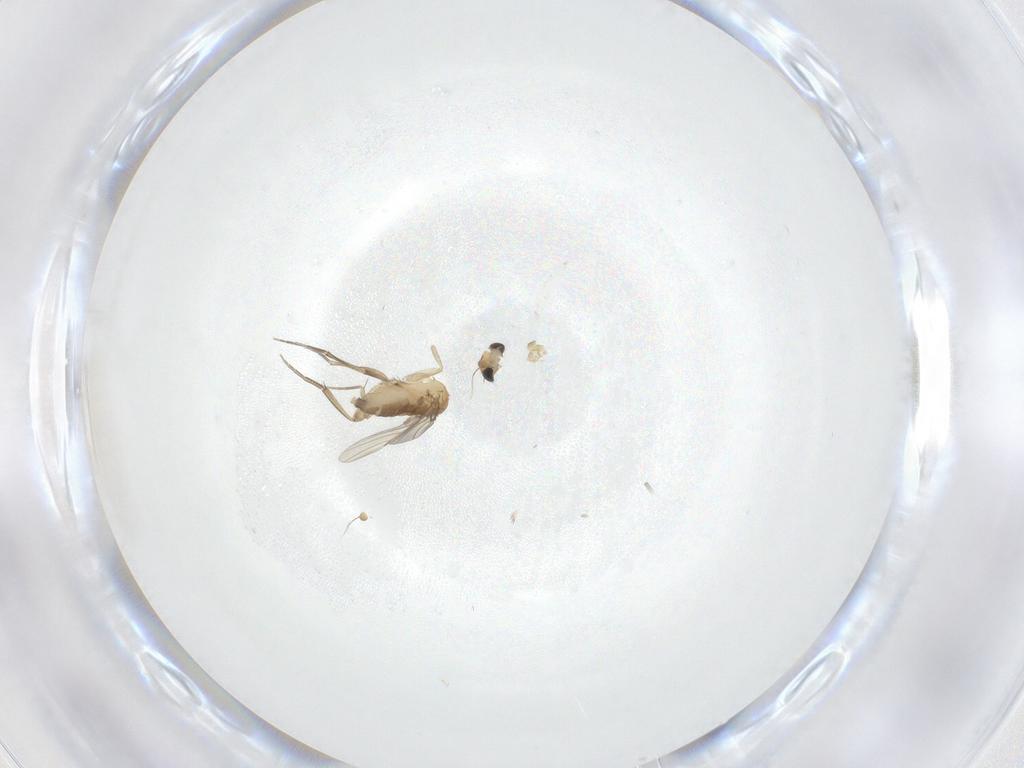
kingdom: Animalia
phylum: Arthropoda
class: Insecta
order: Diptera
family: Phoridae
